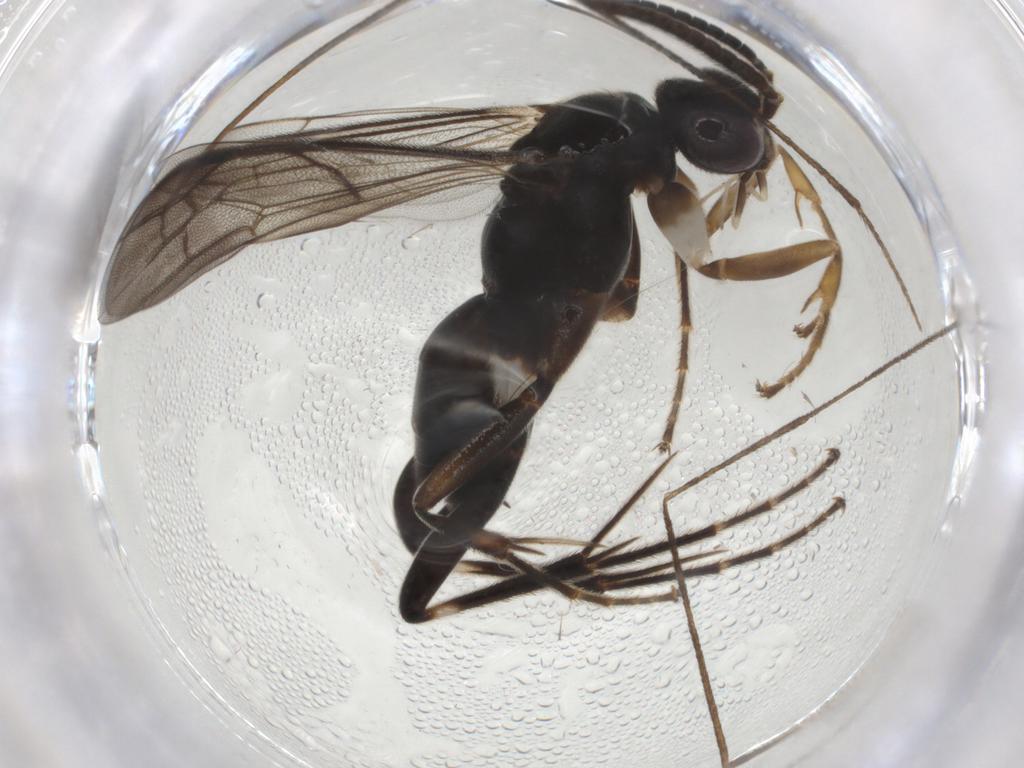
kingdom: Animalia
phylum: Arthropoda
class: Insecta
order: Hymenoptera
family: Pompilidae
